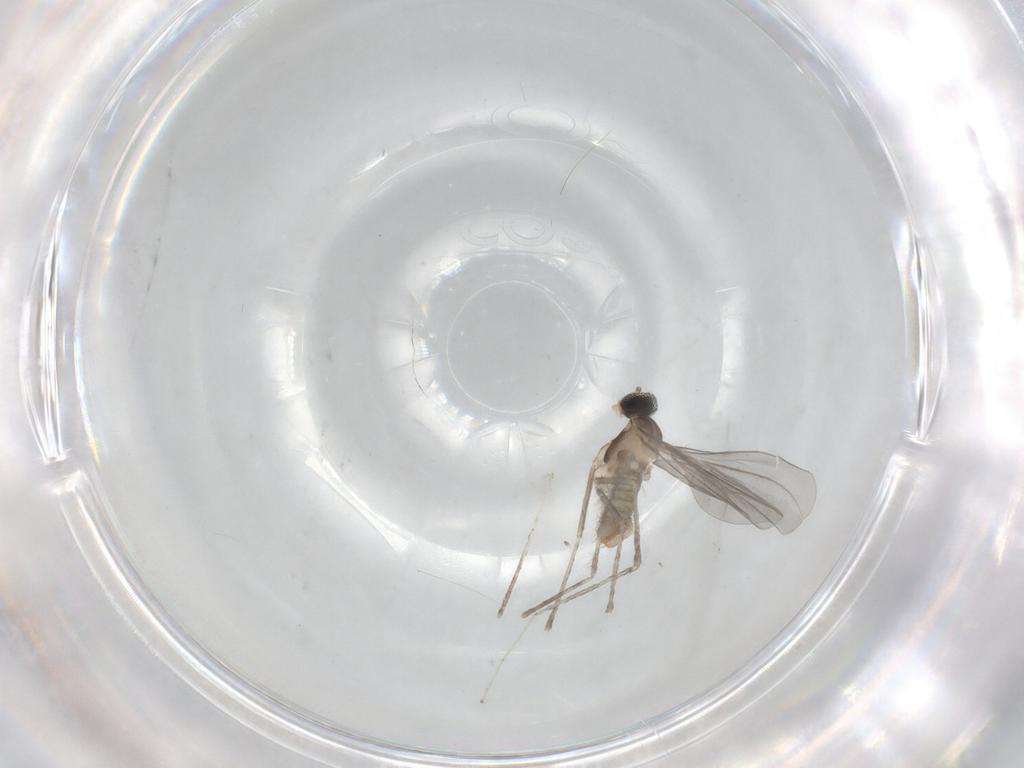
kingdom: Animalia
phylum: Arthropoda
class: Insecta
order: Diptera
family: Cecidomyiidae
